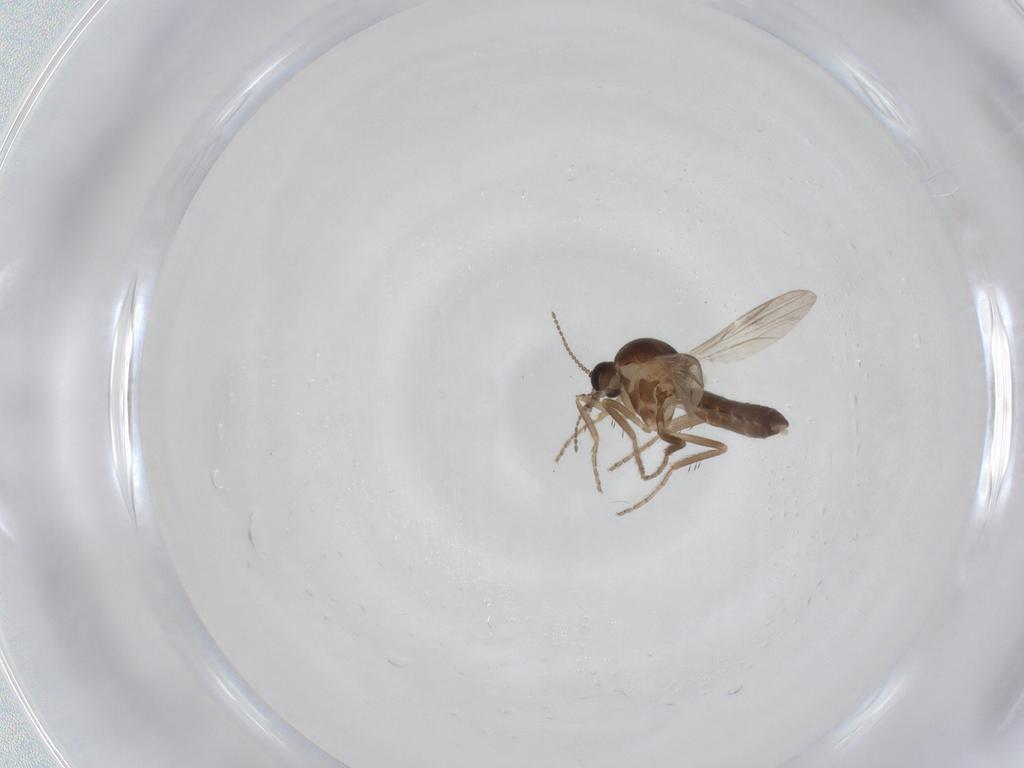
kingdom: Animalia
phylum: Arthropoda
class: Insecta
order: Diptera
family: Ceratopogonidae
